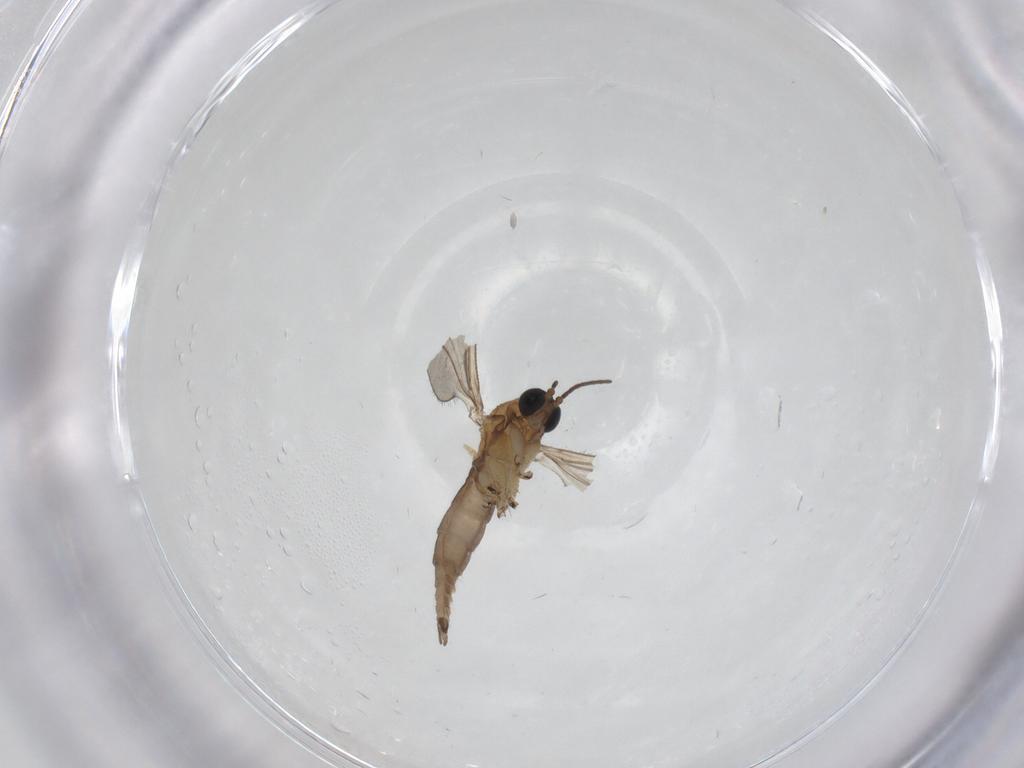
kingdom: Animalia
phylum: Arthropoda
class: Insecta
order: Diptera
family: Sciaridae
